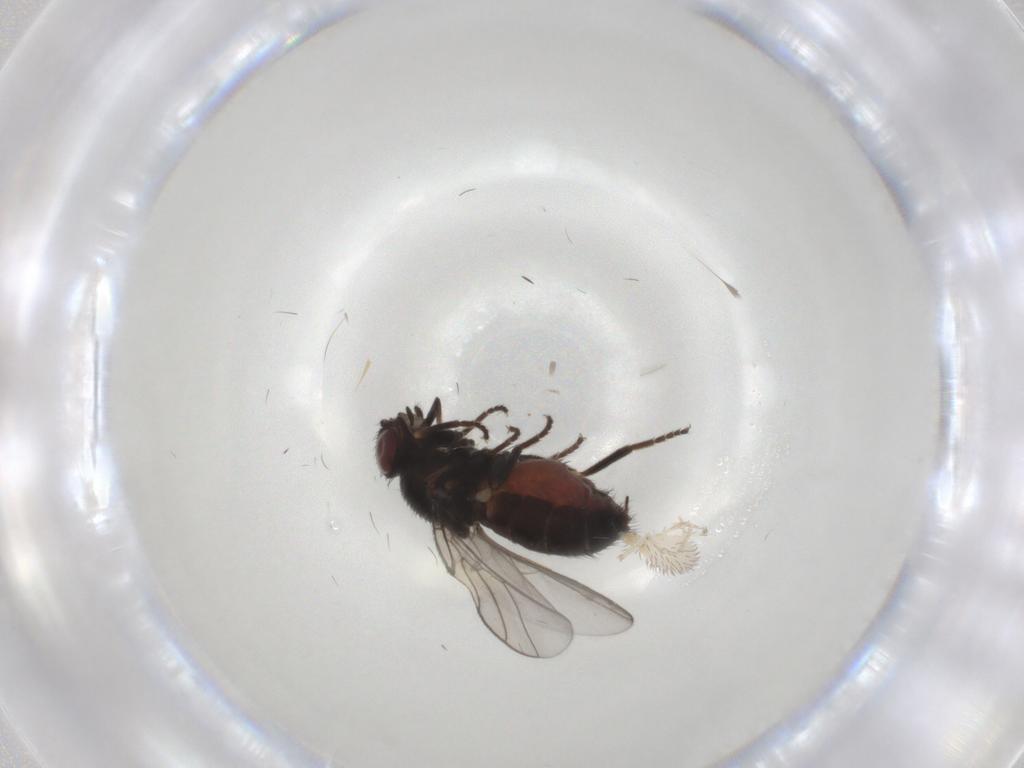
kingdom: Animalia
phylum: Arthropoda
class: Insecta
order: Diptera
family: Chloropidae
